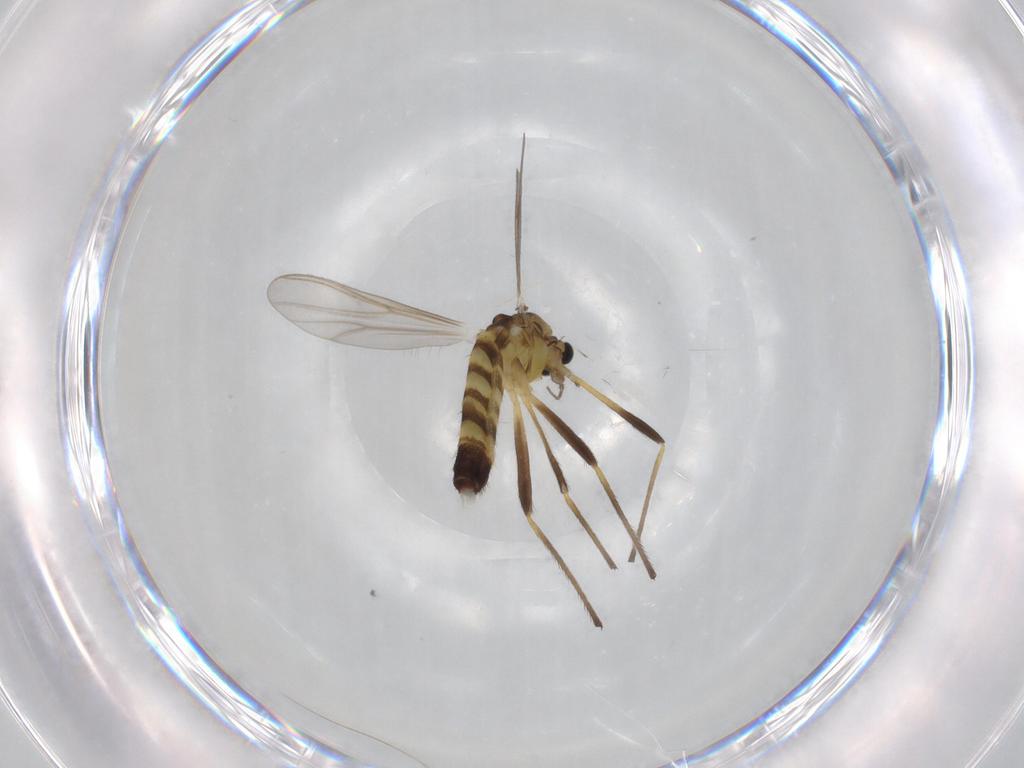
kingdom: Animalia
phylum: Arthropoda
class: Insecta
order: Diptera
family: Chironomidae
